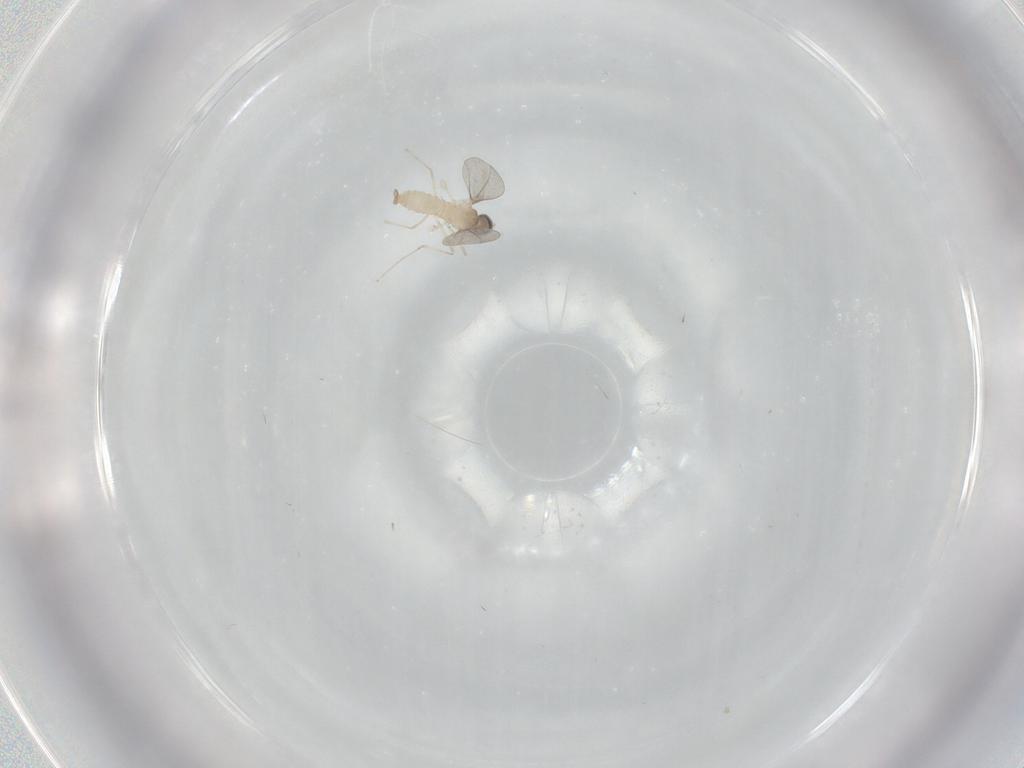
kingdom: Animalia
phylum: Arthropoda
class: Insecta
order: Diptera
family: Cecidomyiidae
